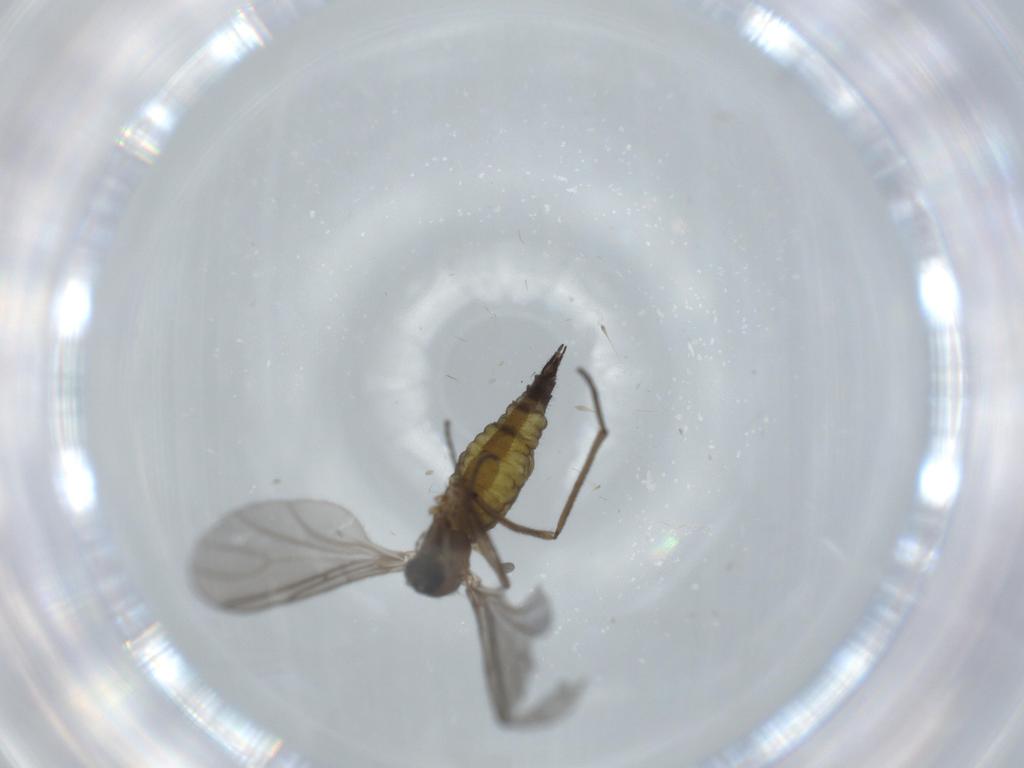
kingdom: Animalia
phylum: Arthropoda
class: Insecta
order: Diptera
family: Sciaridae
